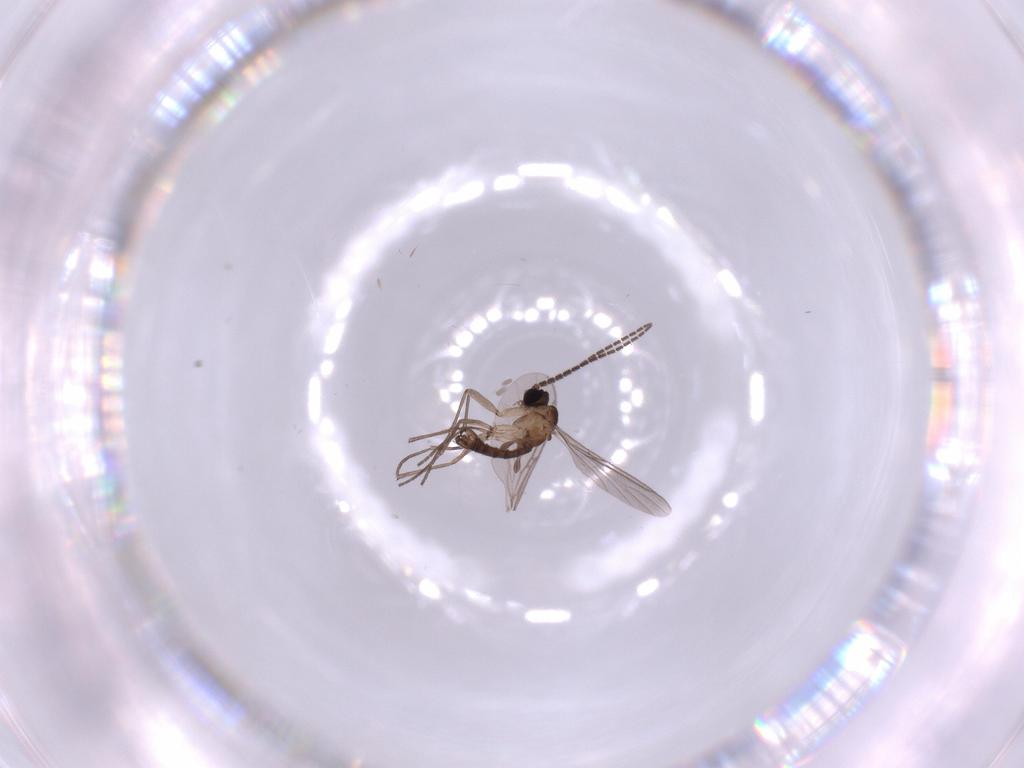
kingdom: Animalia
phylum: Arthropoda
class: Insecta
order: Diptera
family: Sciaridae
